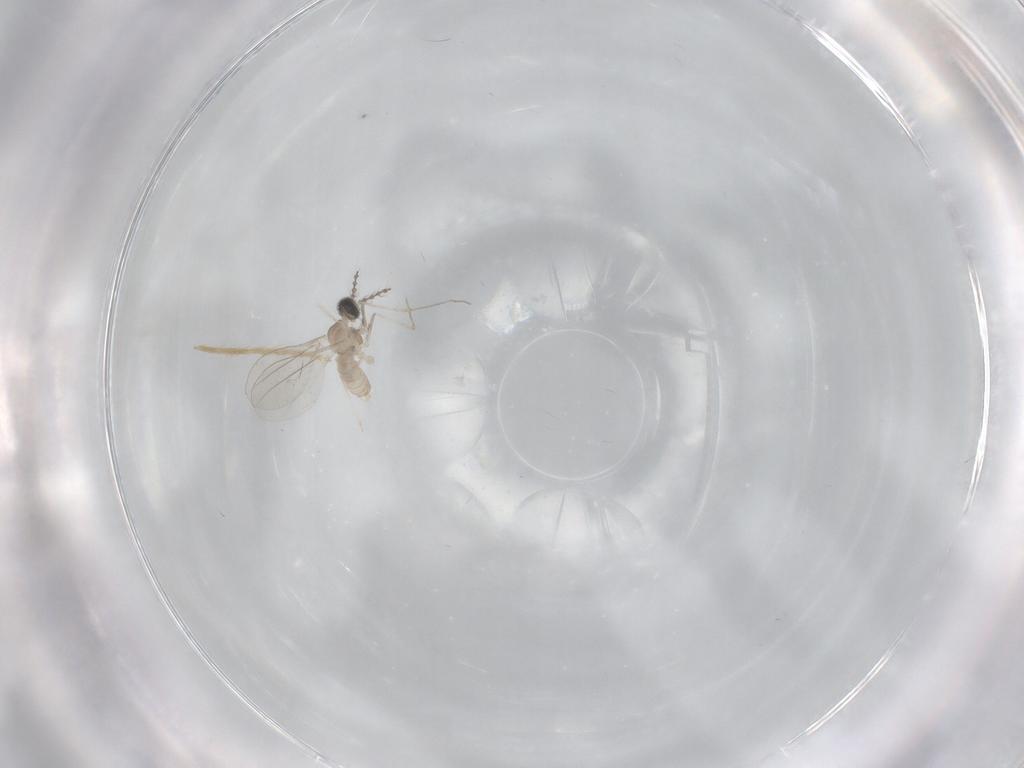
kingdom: Animalia
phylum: Arthropoda
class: Insecta
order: Diptera
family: Cecidomyiidae
